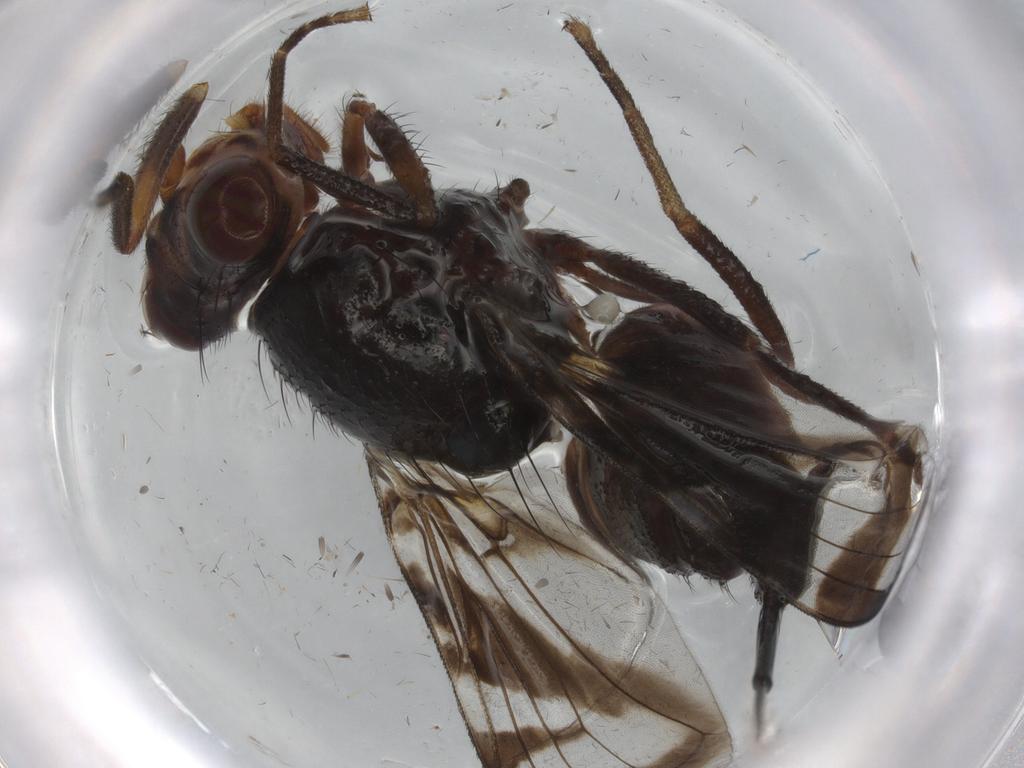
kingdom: Animalia
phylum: Arthropoda
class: Insecta
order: Diptera
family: Ulidiidae
